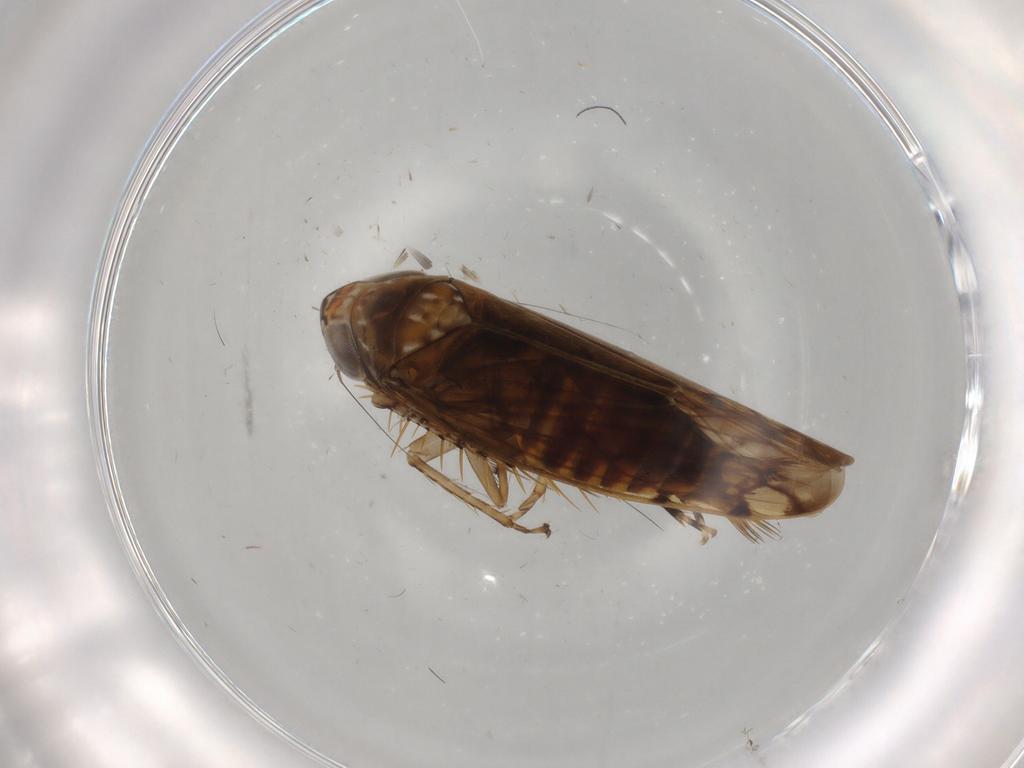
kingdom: Animalia
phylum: Arthropoda
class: Insecta
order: Hemiptera
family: Cicadellidae
